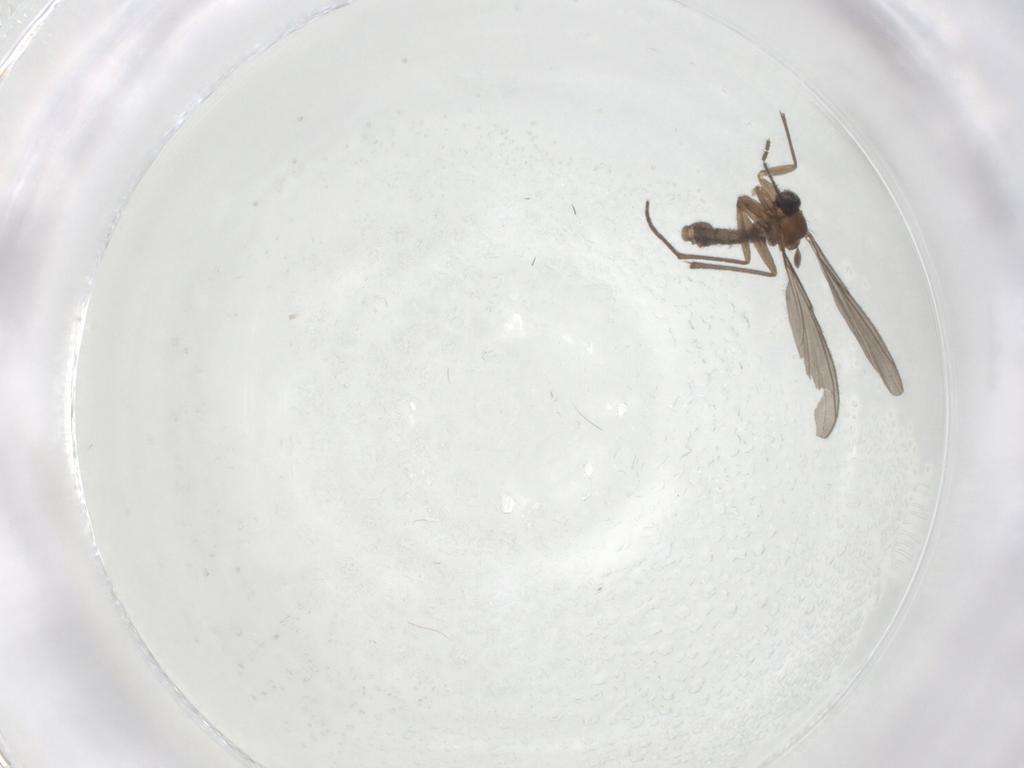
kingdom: Animalia
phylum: Arthropoda
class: Insecta
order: Diptera
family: Sciaridae
